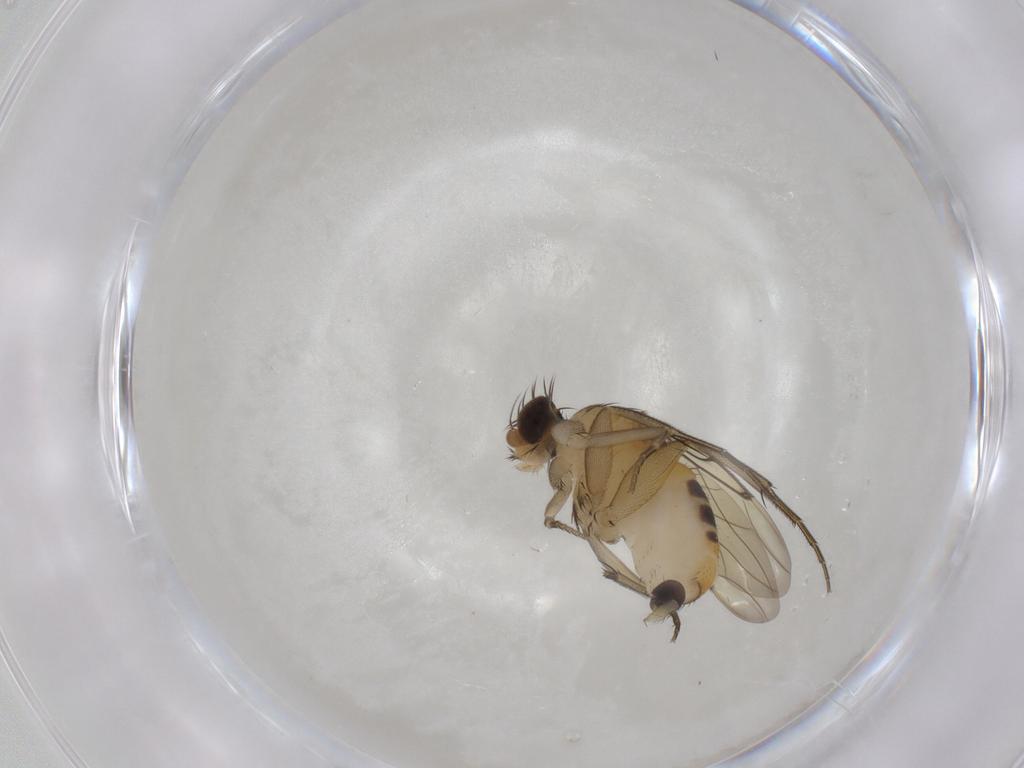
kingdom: Animalia
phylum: Arthropoda
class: Insecta
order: Diptera
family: Phoridae
